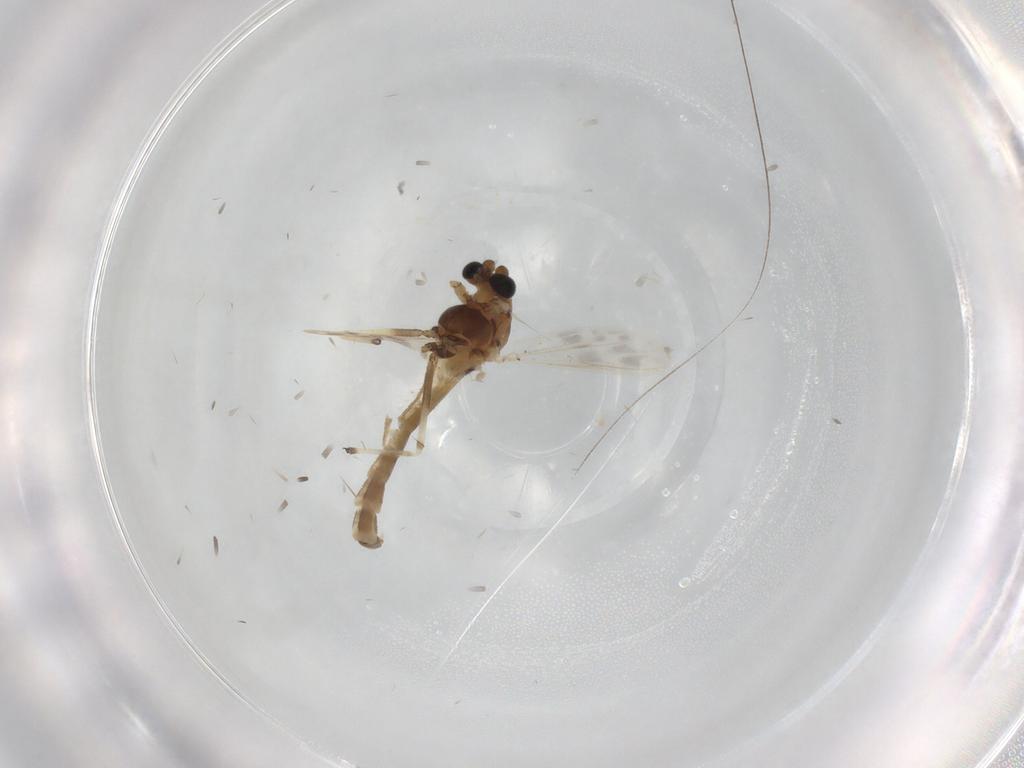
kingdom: Animalia
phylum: Arthropoda
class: Insecta
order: Diptera
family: Chironomidae
